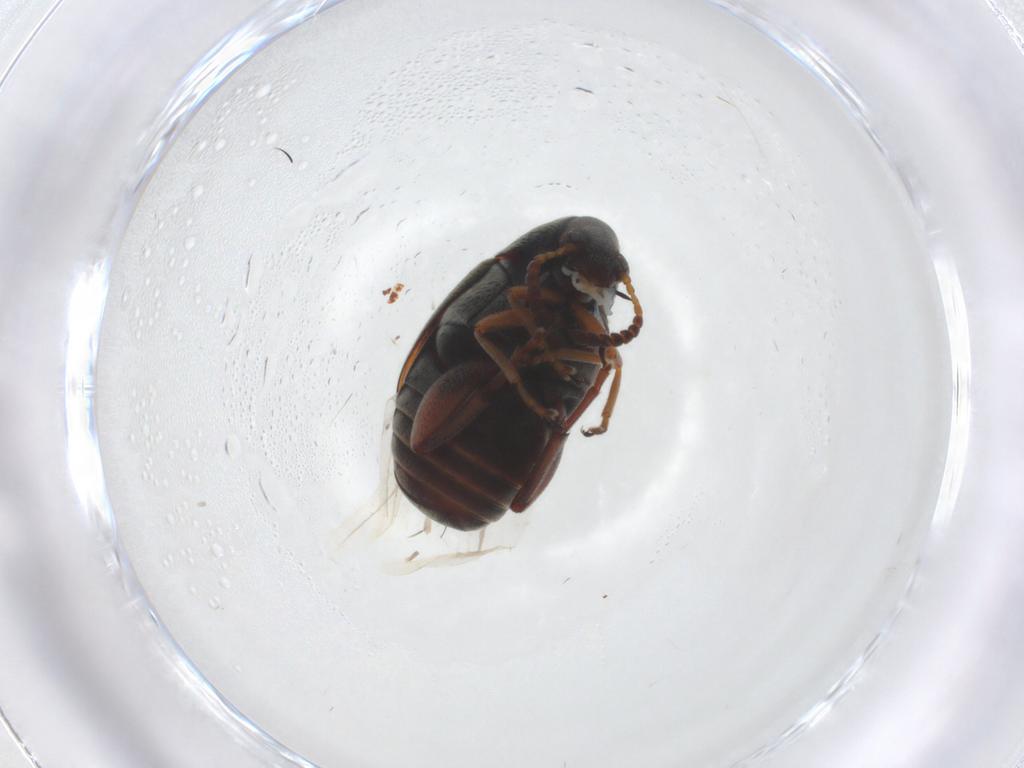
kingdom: Animalia
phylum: Arthropoda
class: Insecta
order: Coleoptera
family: Chrysomelidae
